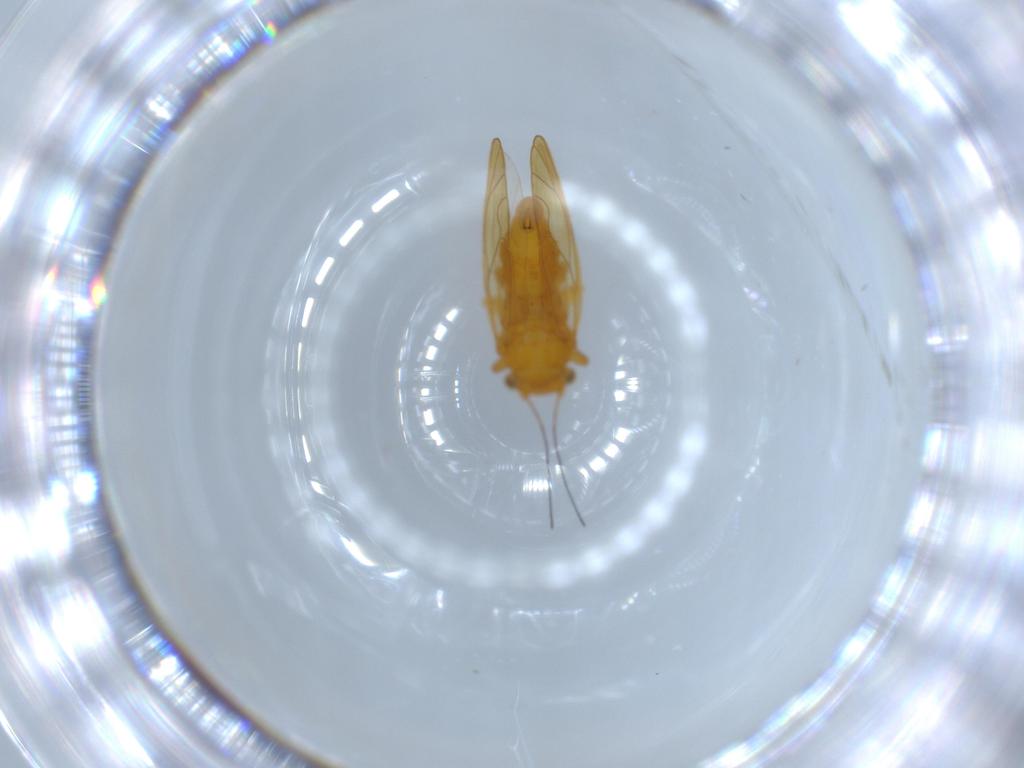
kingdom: Animalia
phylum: Arthropoda
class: Insecta
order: Hemiptera
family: Psyllidae
